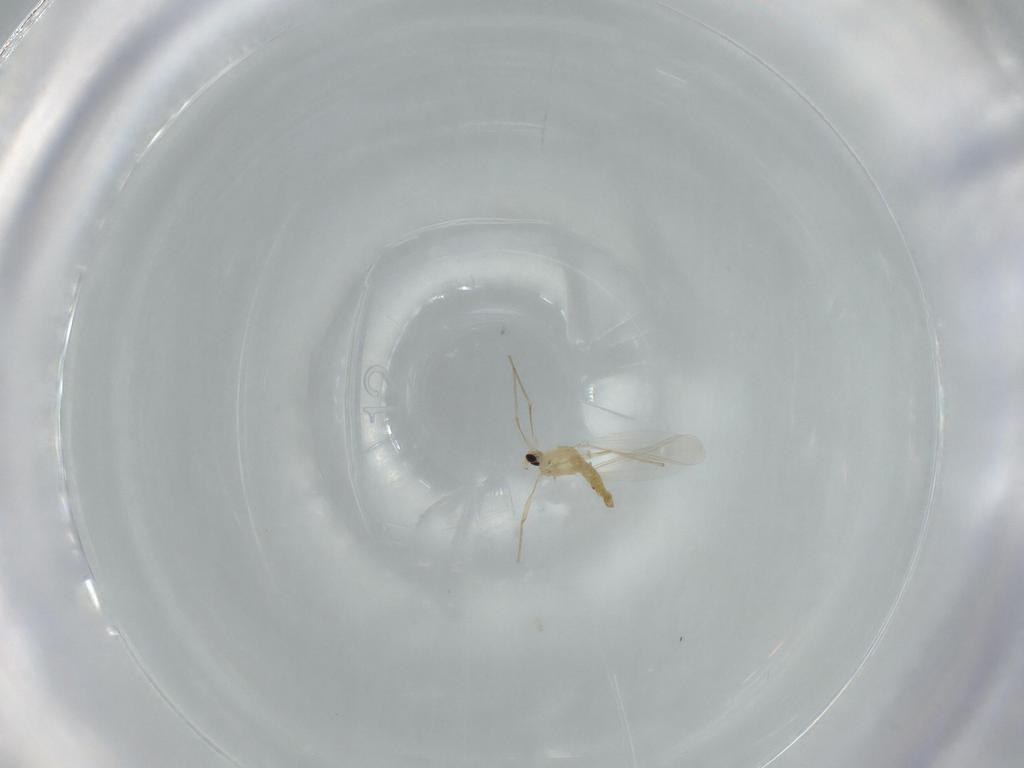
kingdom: Animalia
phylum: Arthropoda
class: Insecta
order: Diptera
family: Chironomidae
